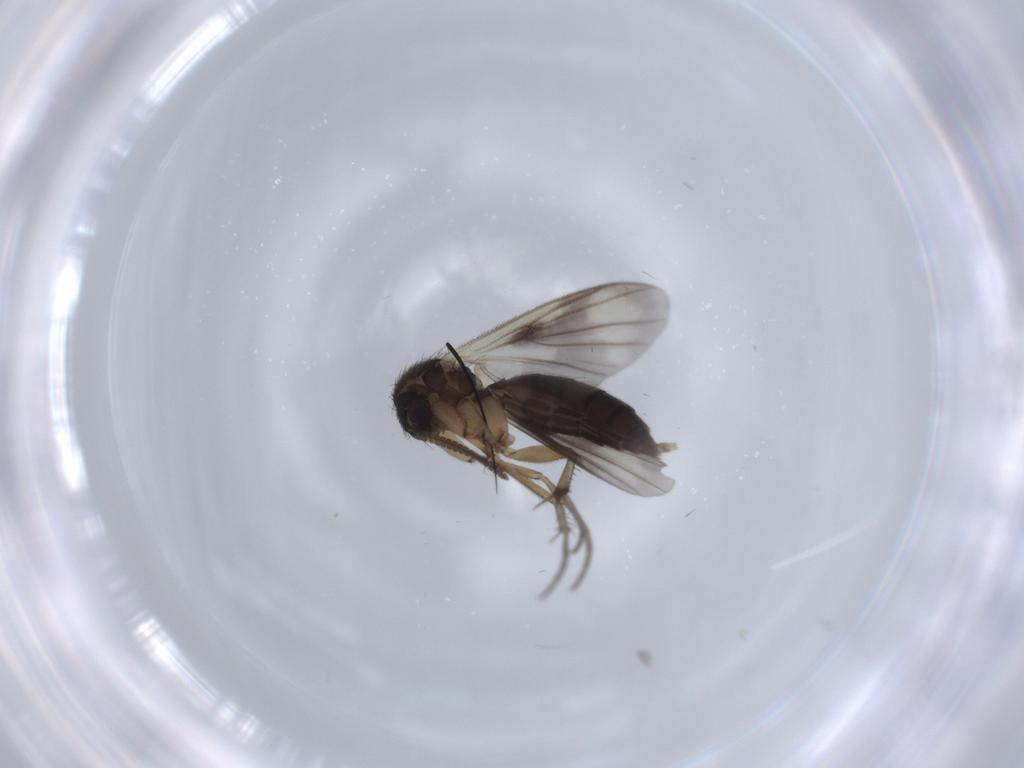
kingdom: Animalia
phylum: Arthropoda
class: Insecta
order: Diptera
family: Mycetophilidae
